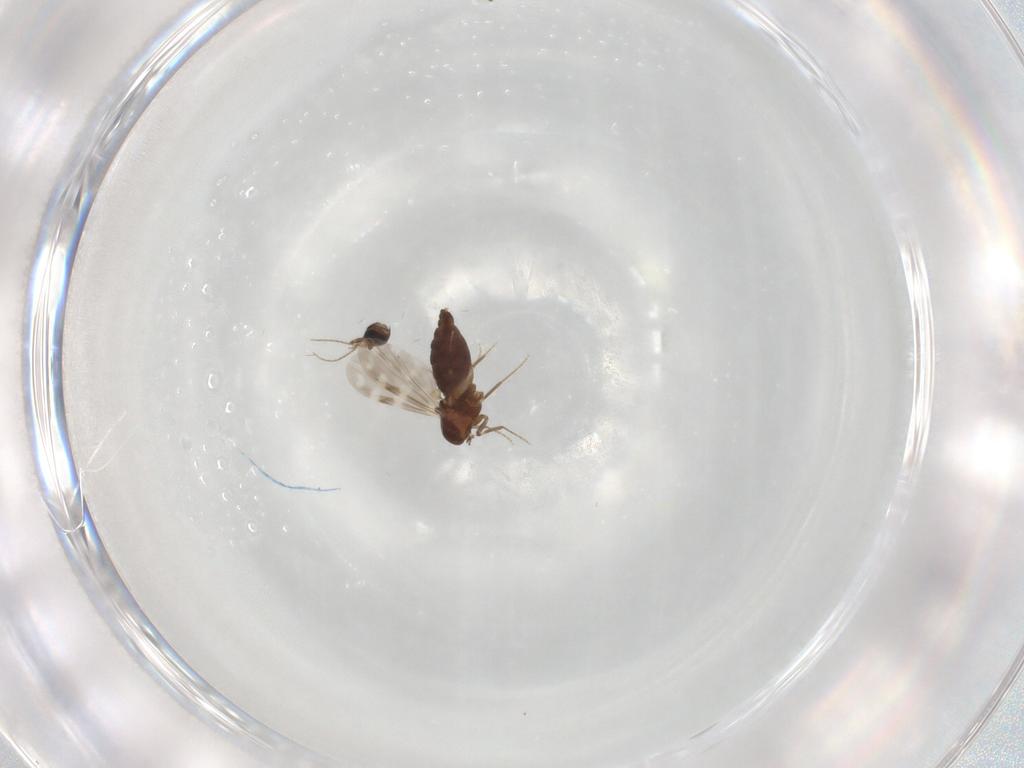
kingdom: Animalia
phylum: Arthropoda
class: Insecta
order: Diptera
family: Ceratopogonidae
